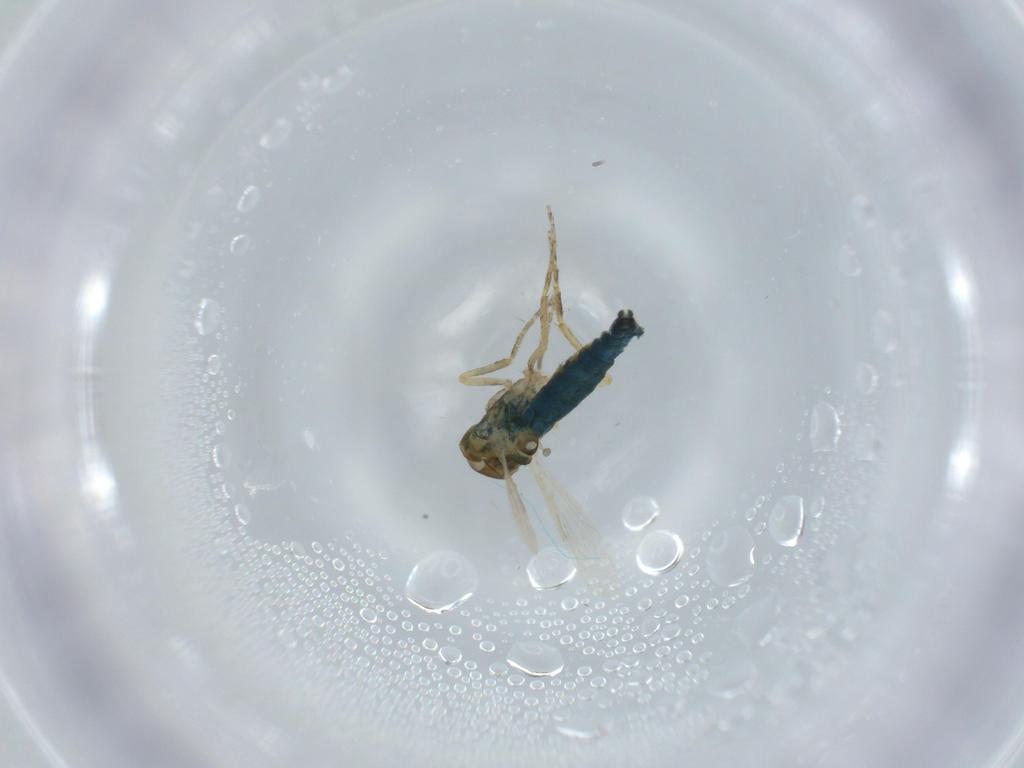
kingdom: Animalia
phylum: Arthropoda
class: Insecta
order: Diptera
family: Ceratopogonidae
